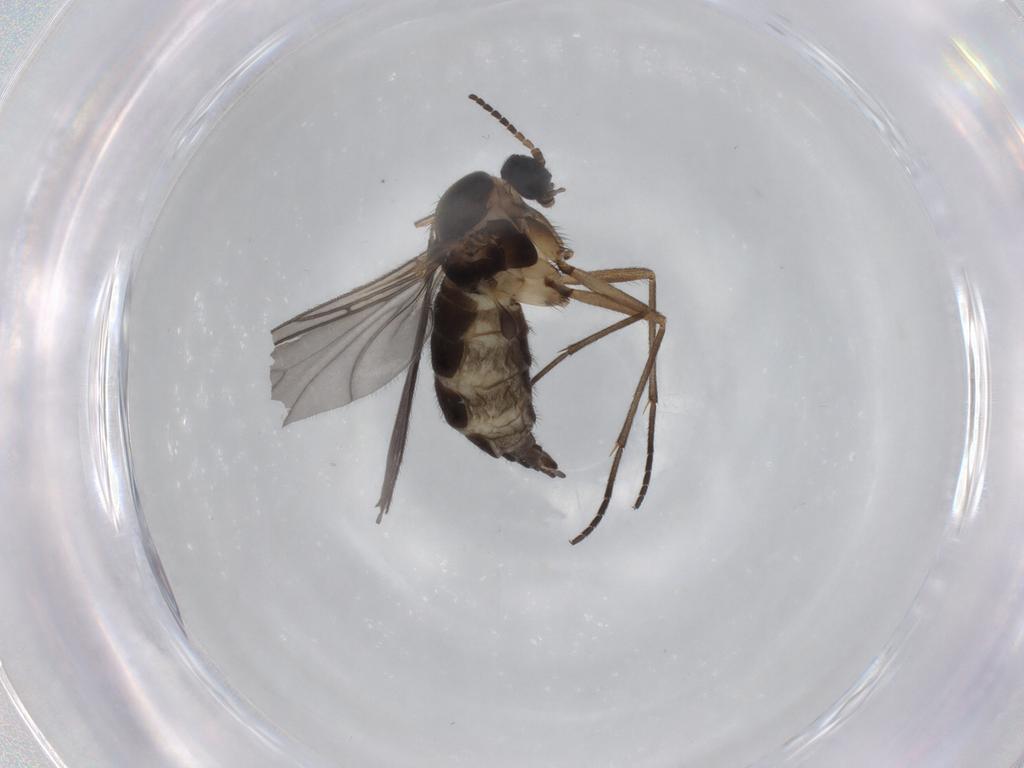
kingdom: Animalia
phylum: Arthropoda
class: Insecta
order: Diptera
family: Sciaridae
